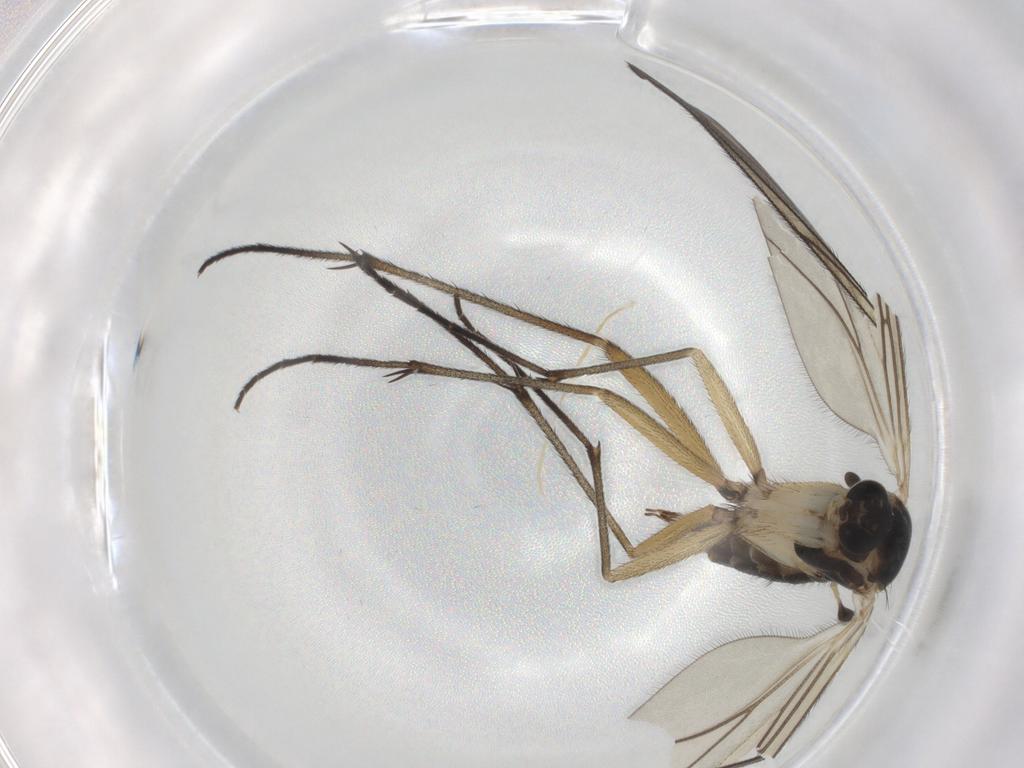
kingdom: Animalia
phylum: Arthropoda
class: Insecta
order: Diptera
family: Sciaridae
